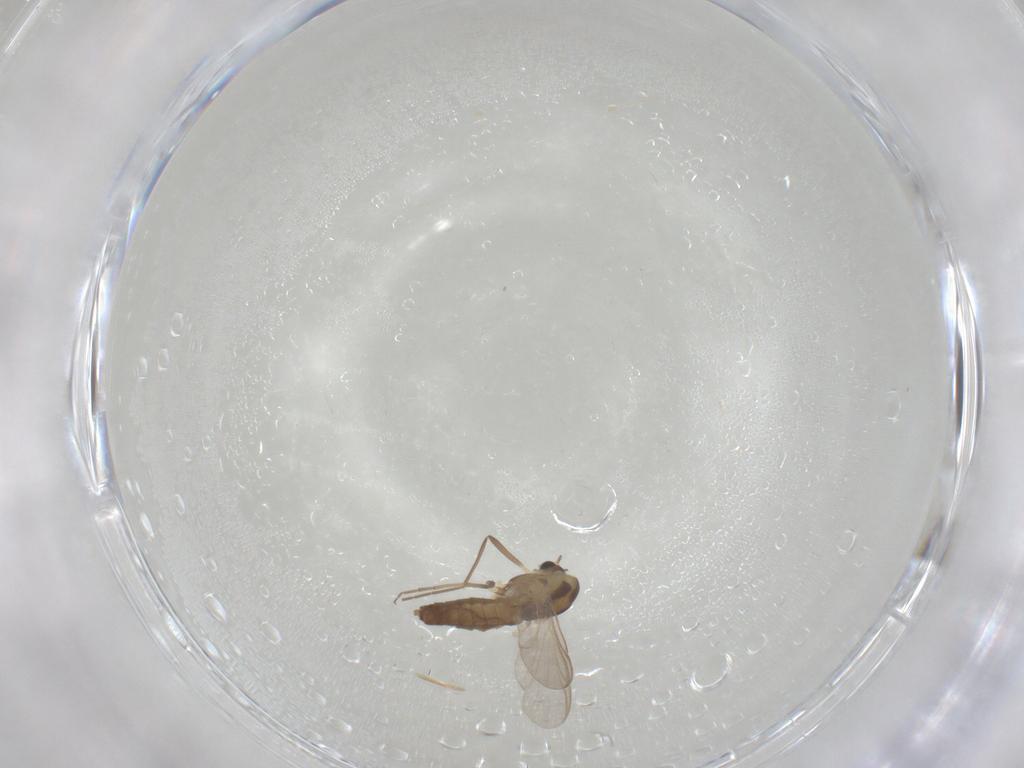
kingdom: Animalia
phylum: Arthropoda
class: Insecta
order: Diptera
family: Chironomidae
